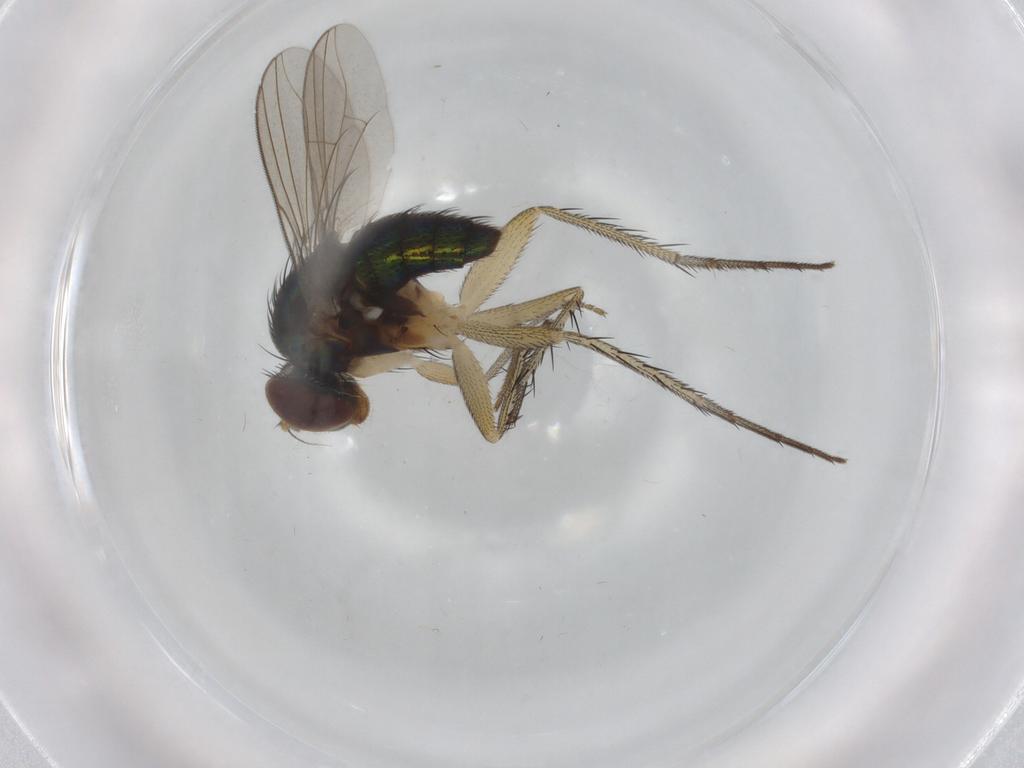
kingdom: Animalia
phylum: Arthropoda
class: Insecta
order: Diptera
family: Dolichopodidae
